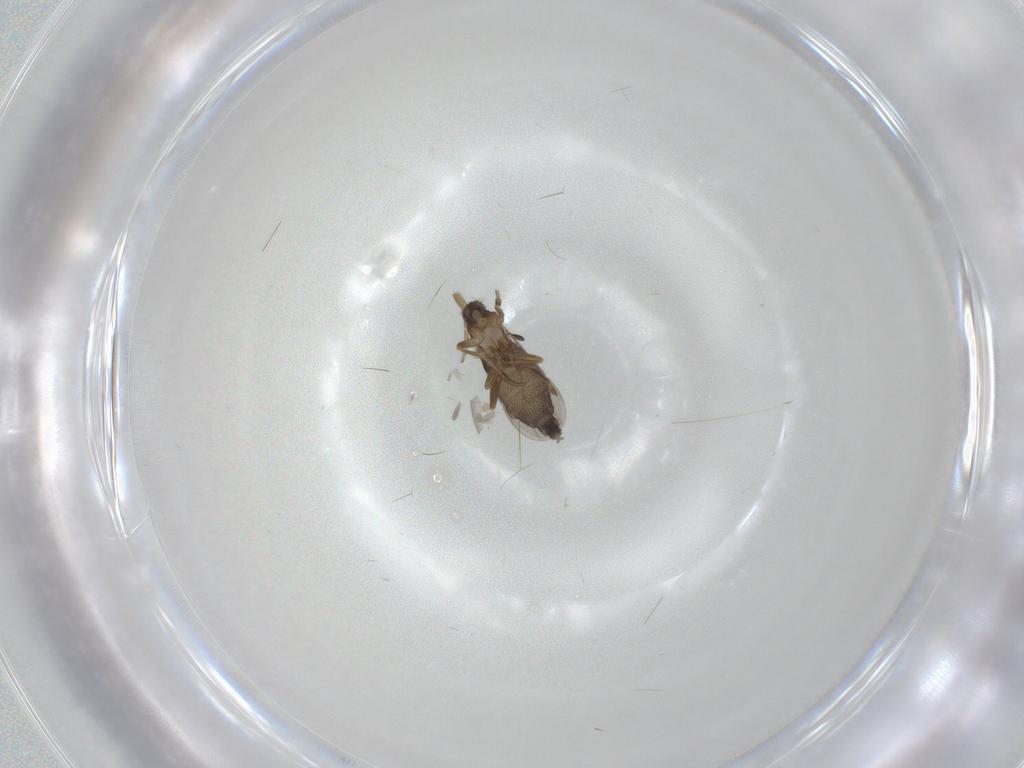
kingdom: Animalia
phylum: Arthropoda
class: Insecta
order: Diptera
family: Phoridae
